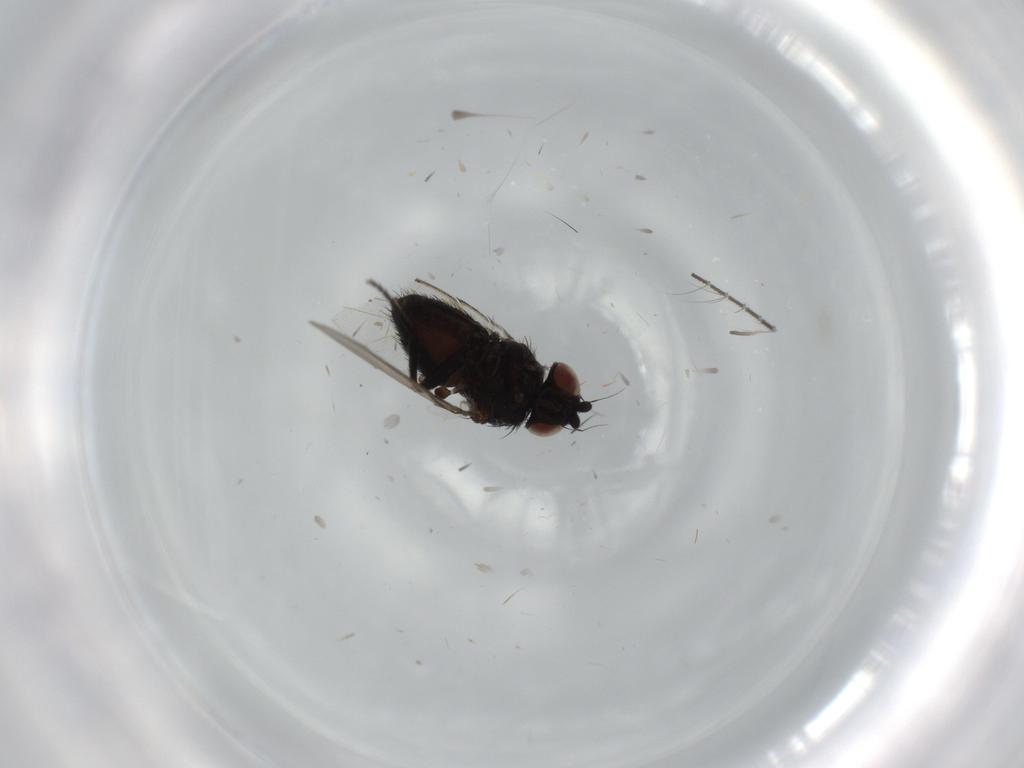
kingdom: Animalia
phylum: Arthropoda
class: Insecta
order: Diptera
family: Cecidomyiidae
